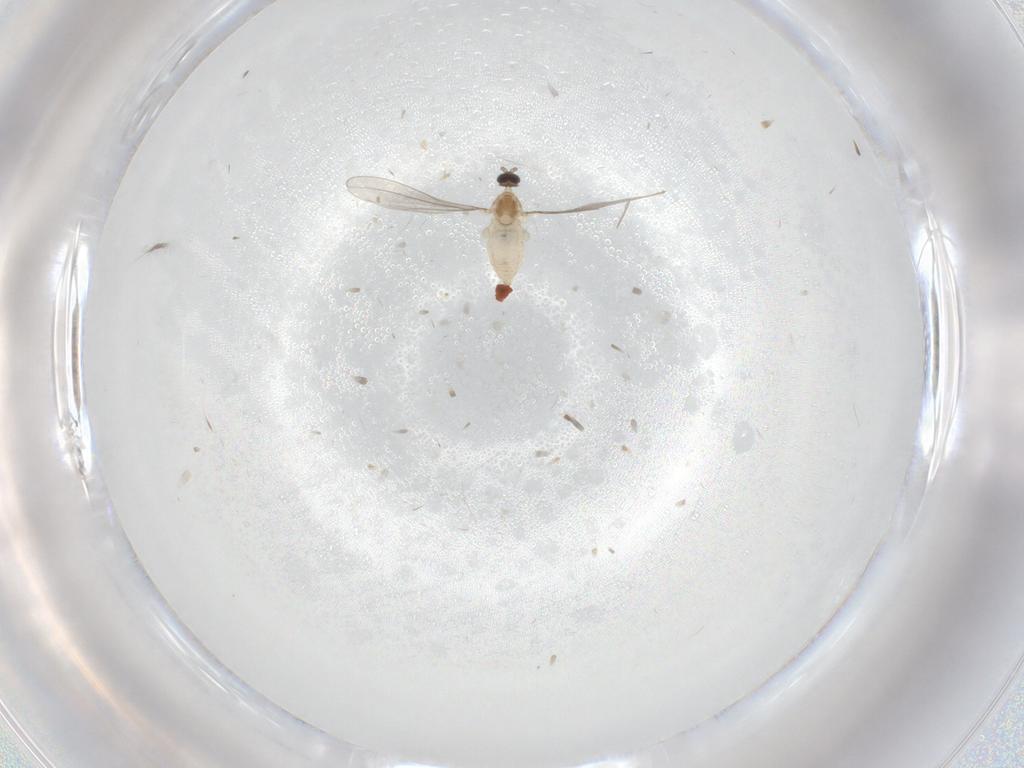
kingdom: Animalia
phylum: Arthropoda
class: Insecta
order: Diptera
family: Cecidomyiidae
